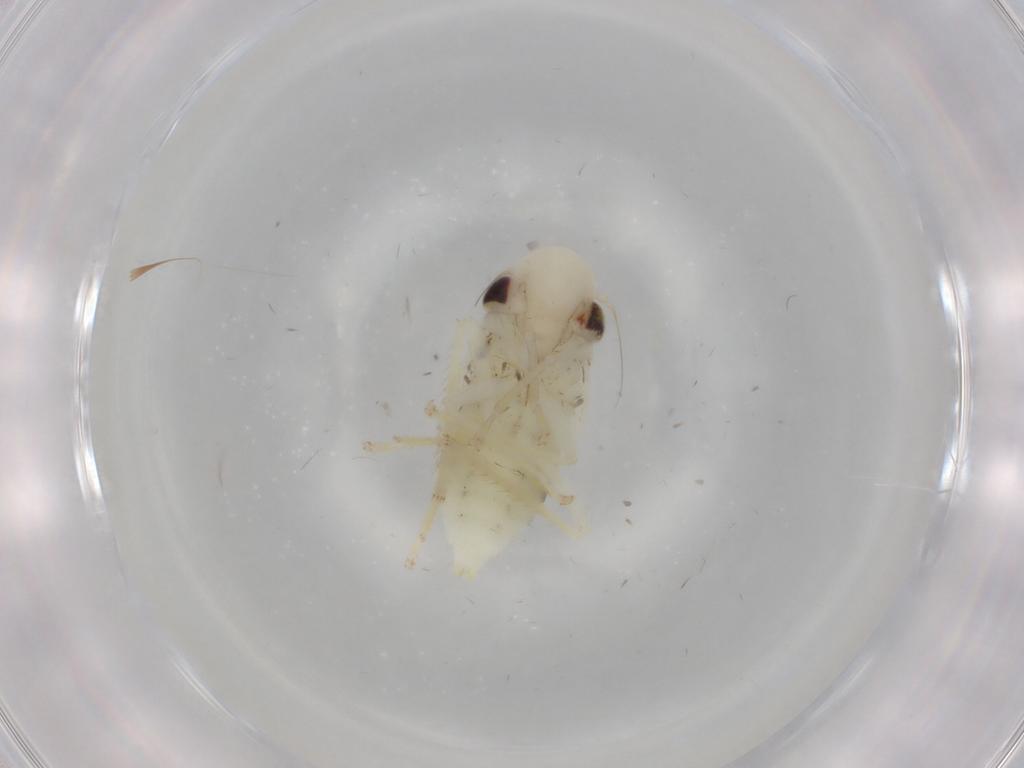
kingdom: Animalia
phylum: Arthropoda
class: Insecta
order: Hemiptera
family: Cicadellidae
